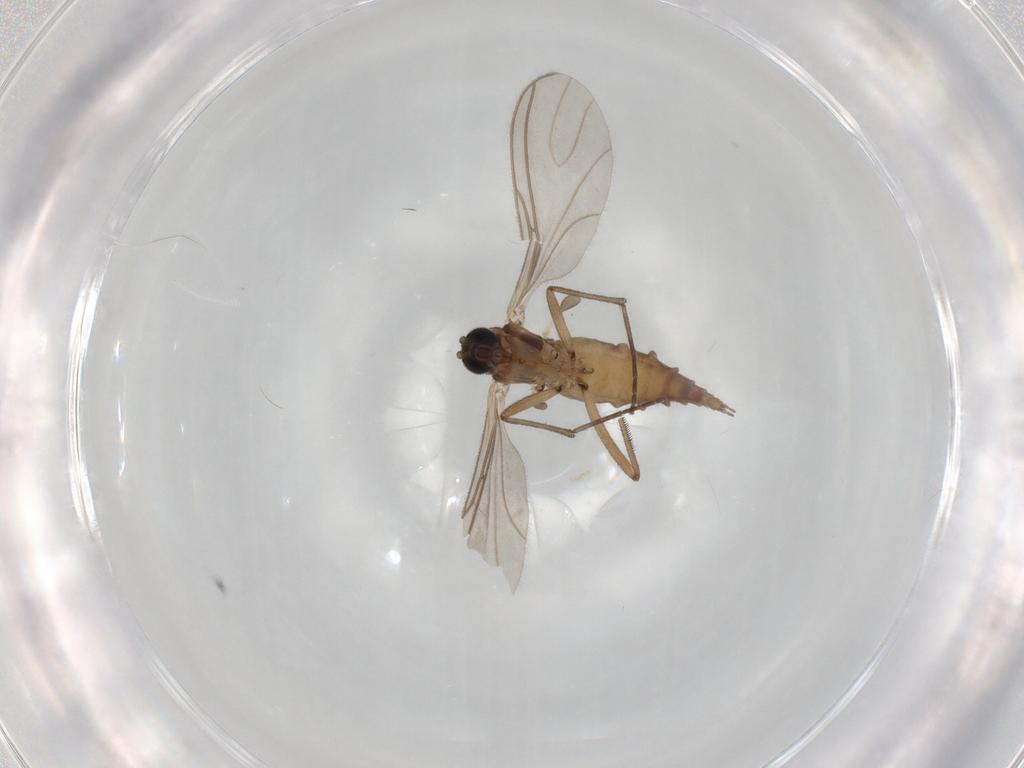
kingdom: Animalia
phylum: Arthropoda
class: Insecta
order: Diptera
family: Sciaridae
